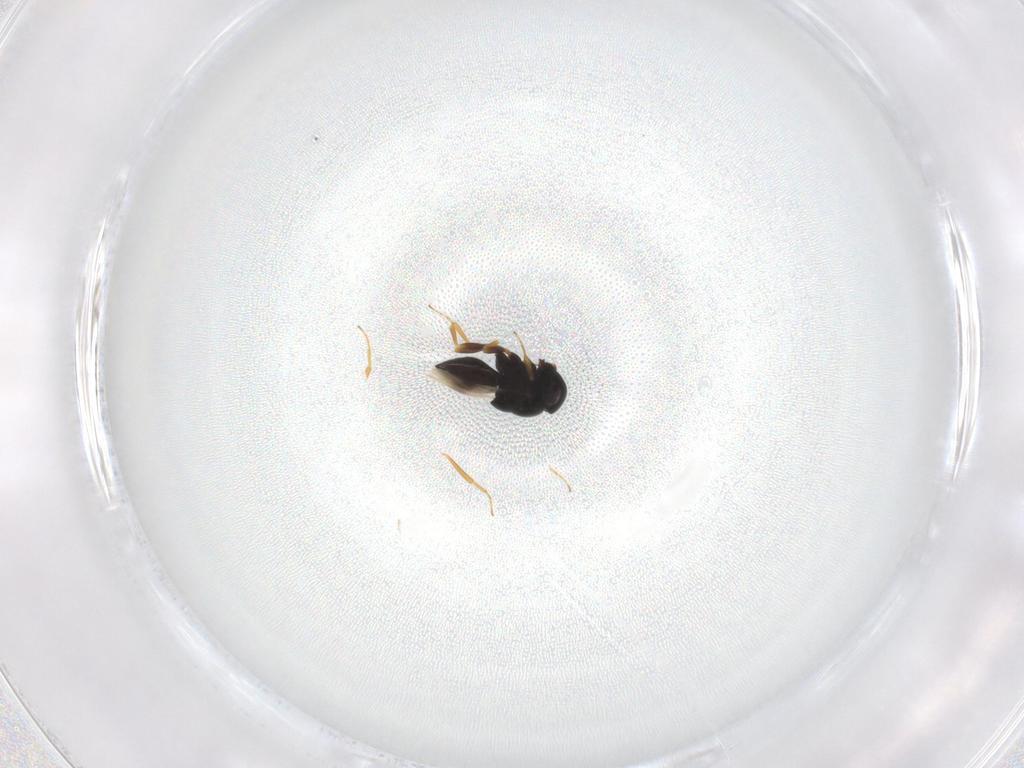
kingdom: Animalia
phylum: Arthropoda
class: Insecta
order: Hymenoptera
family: Scelionidae
